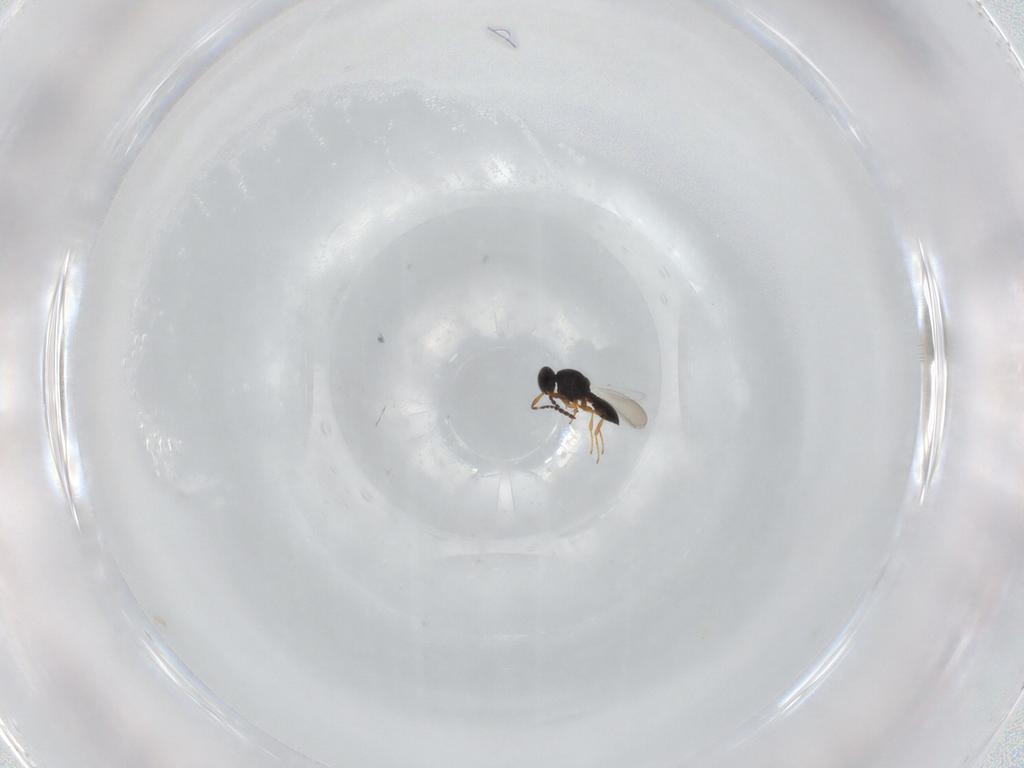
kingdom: Animalia
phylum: Arthropoda
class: Insecta
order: Hymenoptera
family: Platygastridae
